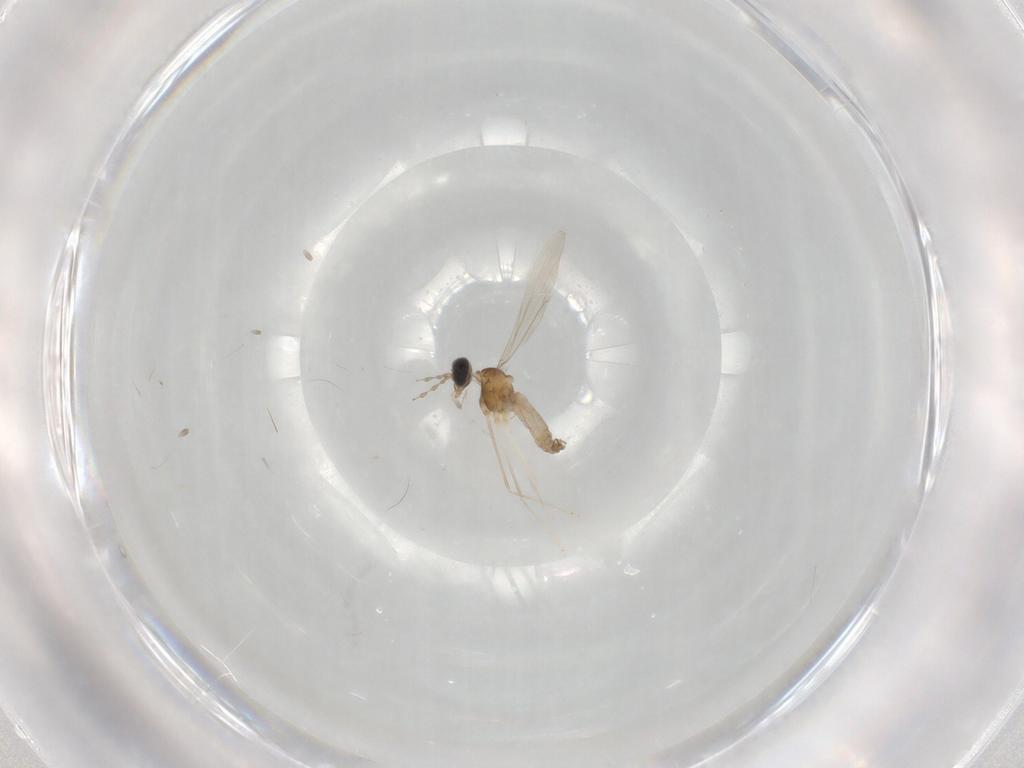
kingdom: Animalia
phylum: Arthropoda
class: Insecta
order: Diptera
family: Cecidomyiidae
